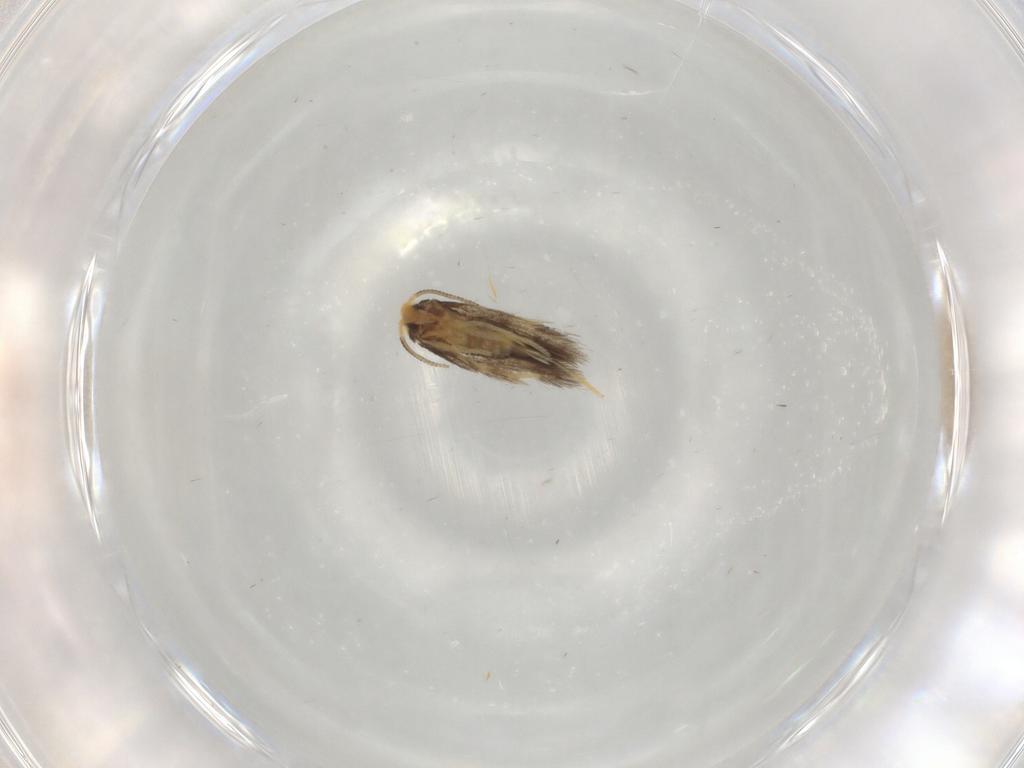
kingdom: Animalia
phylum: Arthropoda
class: Insecta
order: Lepidoptera
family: Nepticulidae
